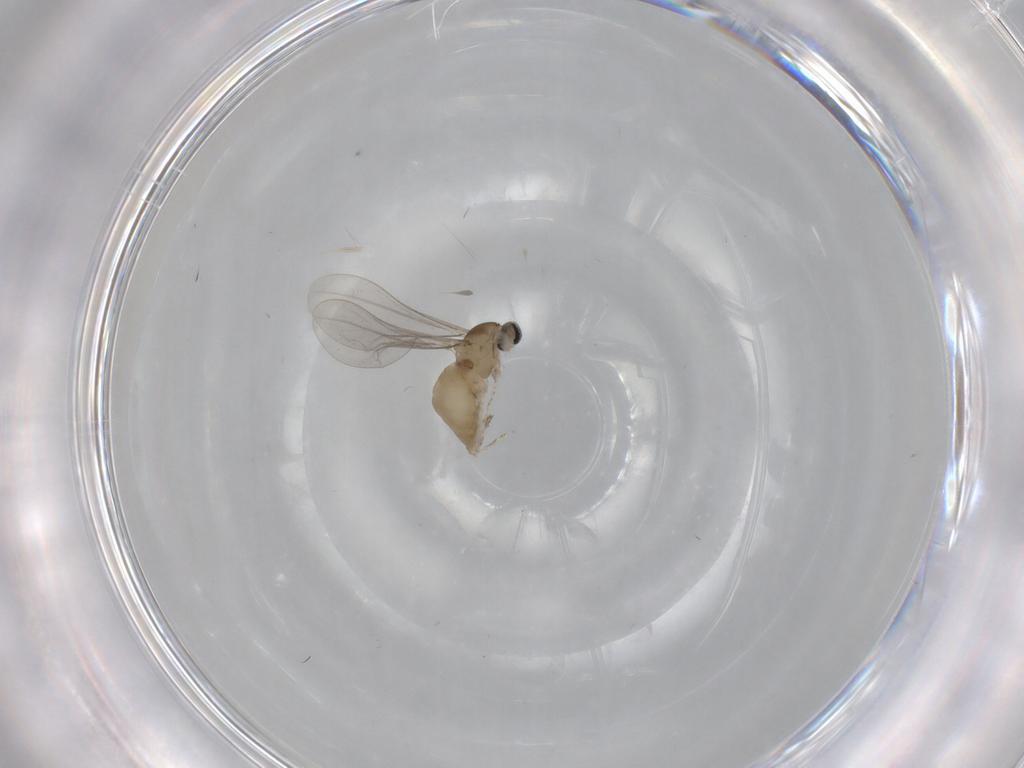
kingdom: Animalia
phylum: Arthropoda
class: Insecta
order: Diptera
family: Cecidomyiidae
